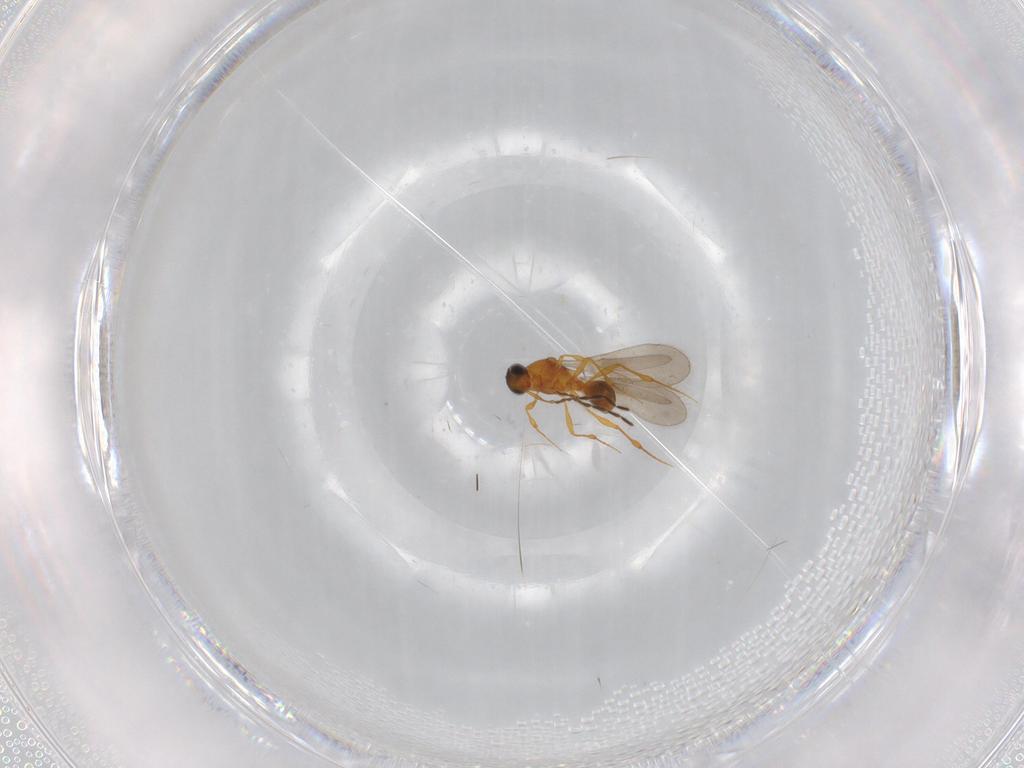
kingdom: Animalia
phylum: Arthropoda
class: Insecta
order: Hymenoptera
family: Platygastridae
